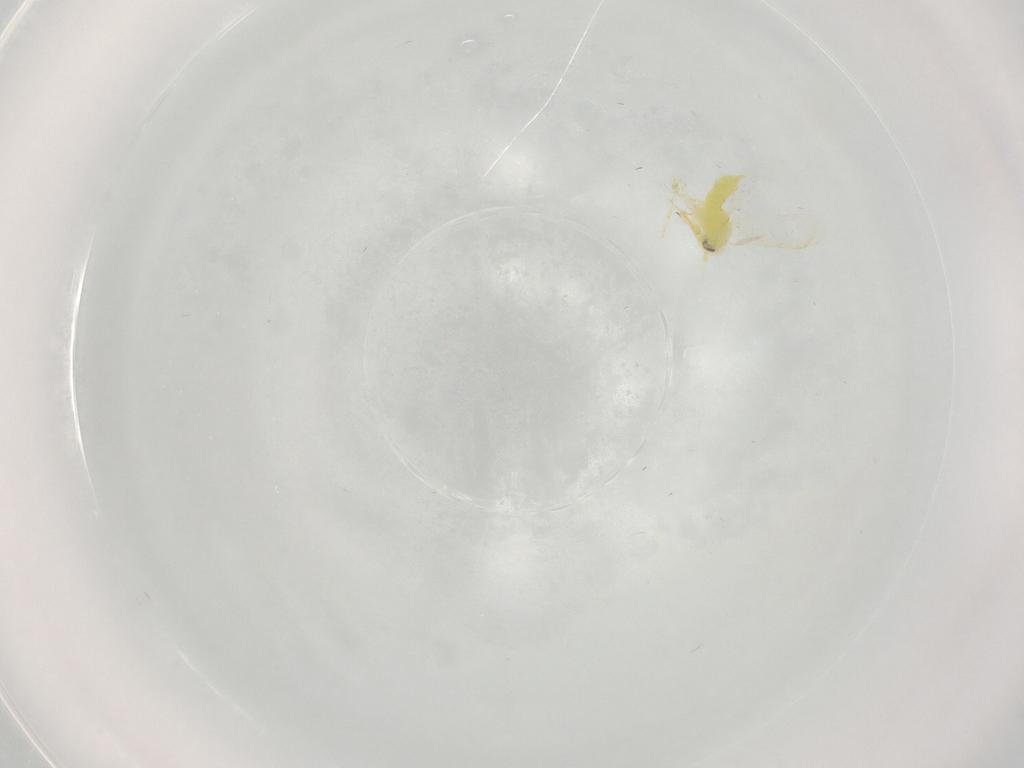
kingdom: Animalia
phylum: Arthropoda
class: Insecta
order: Hemiptera
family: Aleyrodidae
